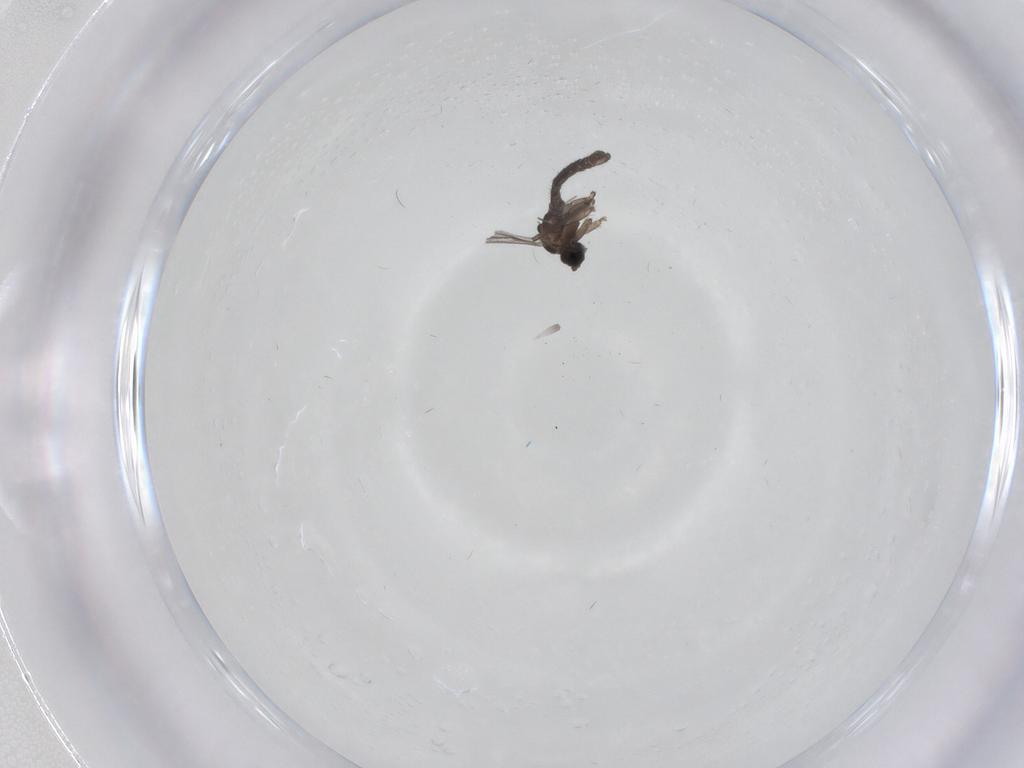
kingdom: Animalia
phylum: Arthropoda
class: Insecta
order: Diptera
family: Sciaridae
